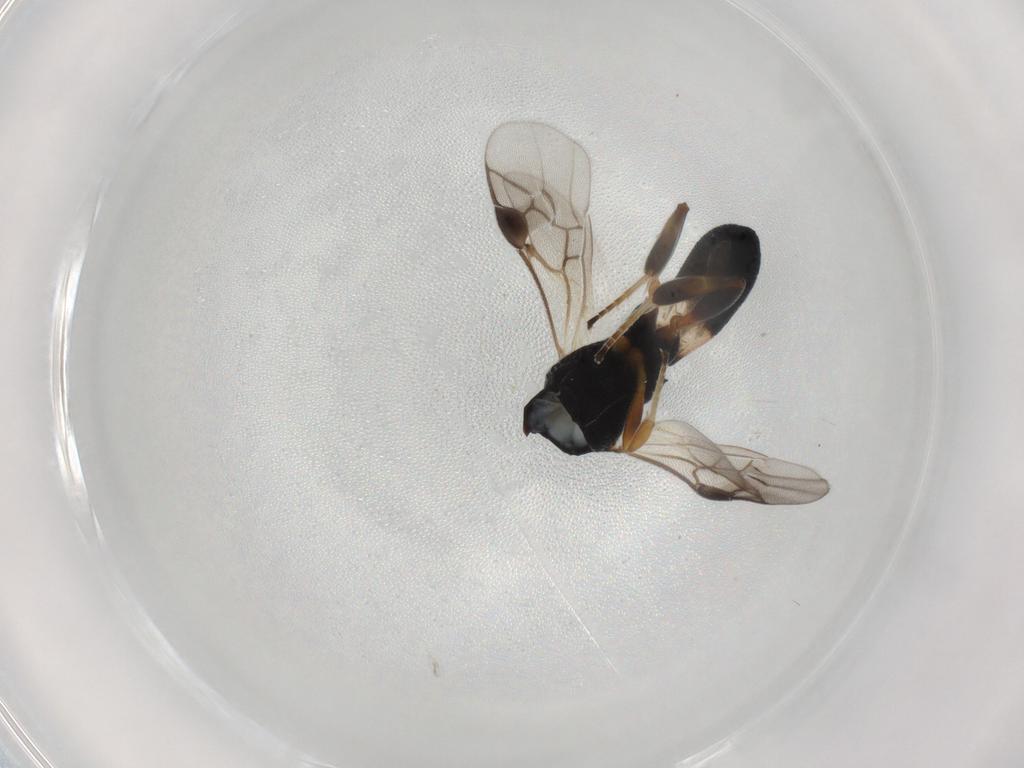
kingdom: Animalia
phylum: Arthropoda
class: Insecta
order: Hymenoptera
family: Braconidae
